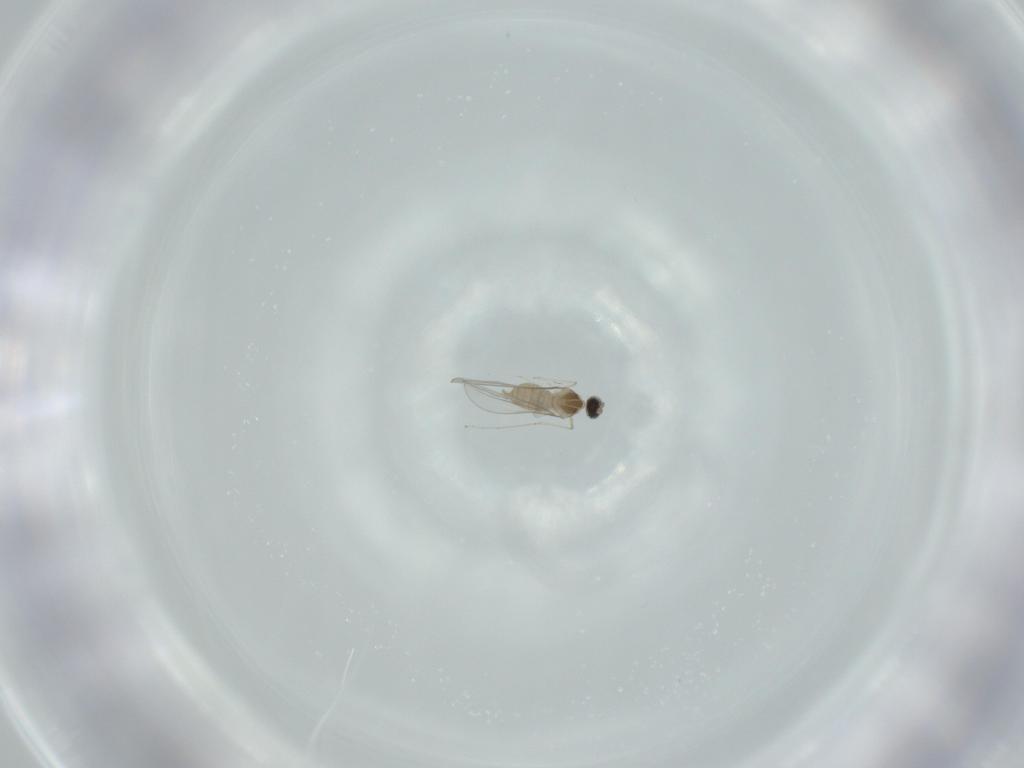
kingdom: Animalia
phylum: Arthropoda
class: Insecta
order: Diptera
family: Cecidomyiidae
